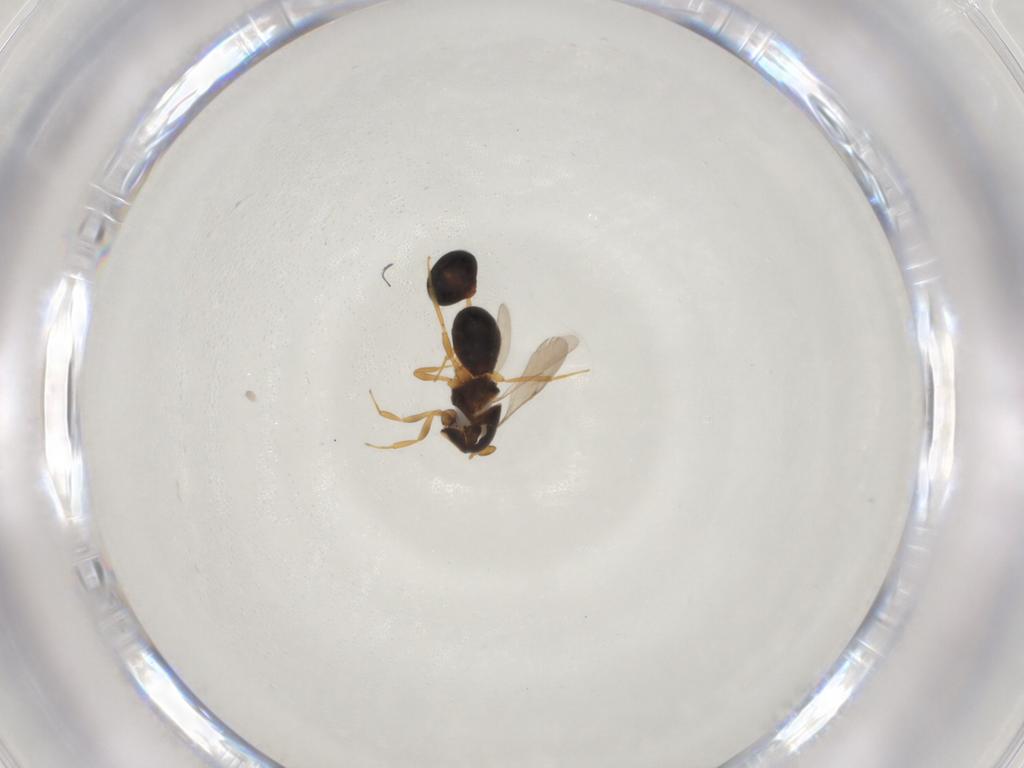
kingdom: Animalia
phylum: Arthropoda
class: Insecta
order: Hymenoptera
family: Scelionidae
